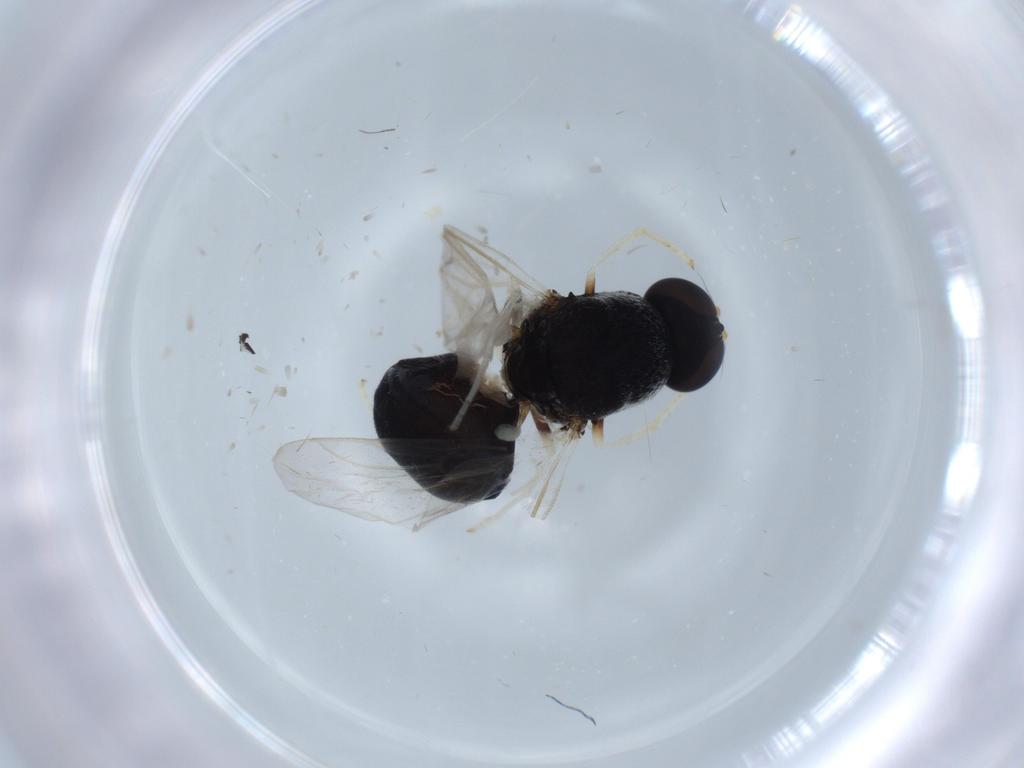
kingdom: Animalia
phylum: Arthropoda
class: Insecta
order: Diptera
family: Stratiomyidae
